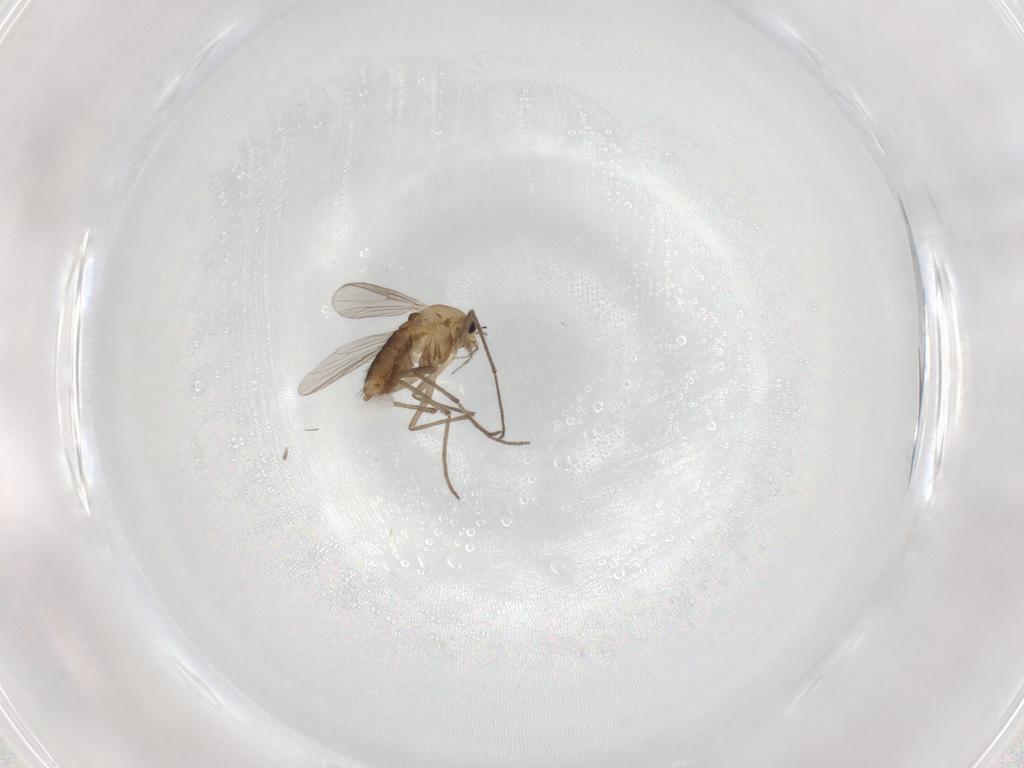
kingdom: Animalia
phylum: Arthropoda
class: Insecta
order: Diptera
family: Chironomidae
